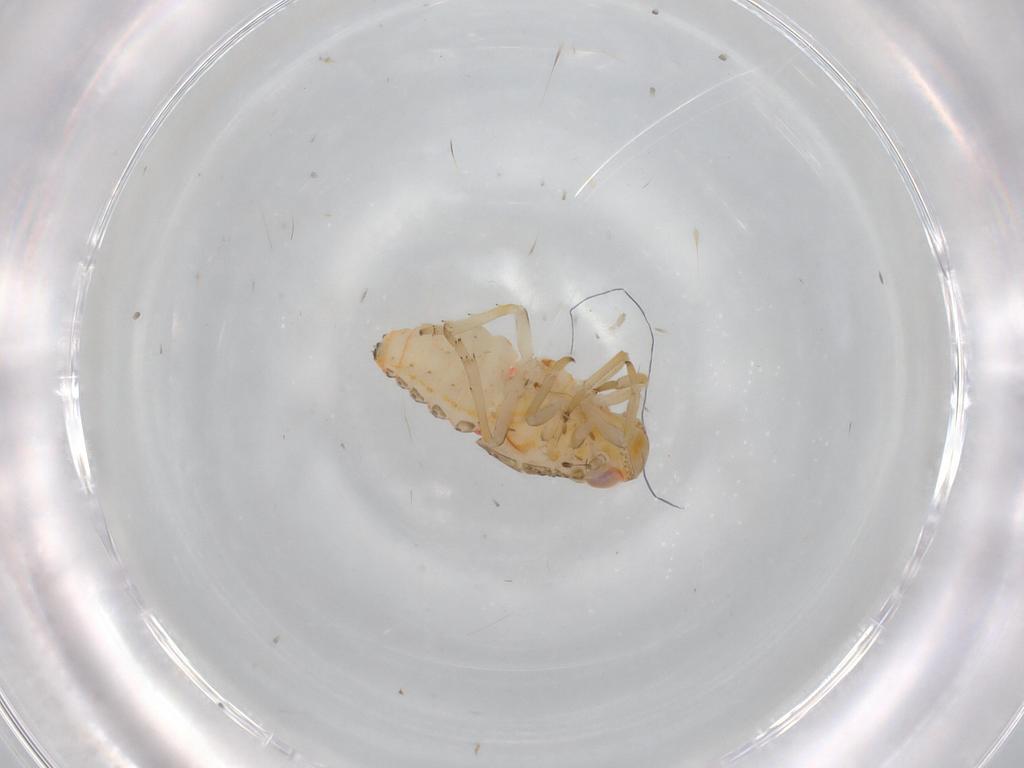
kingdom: Animalia
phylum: Arthropoda
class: Insecta
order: Hemiptera
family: Issidae
